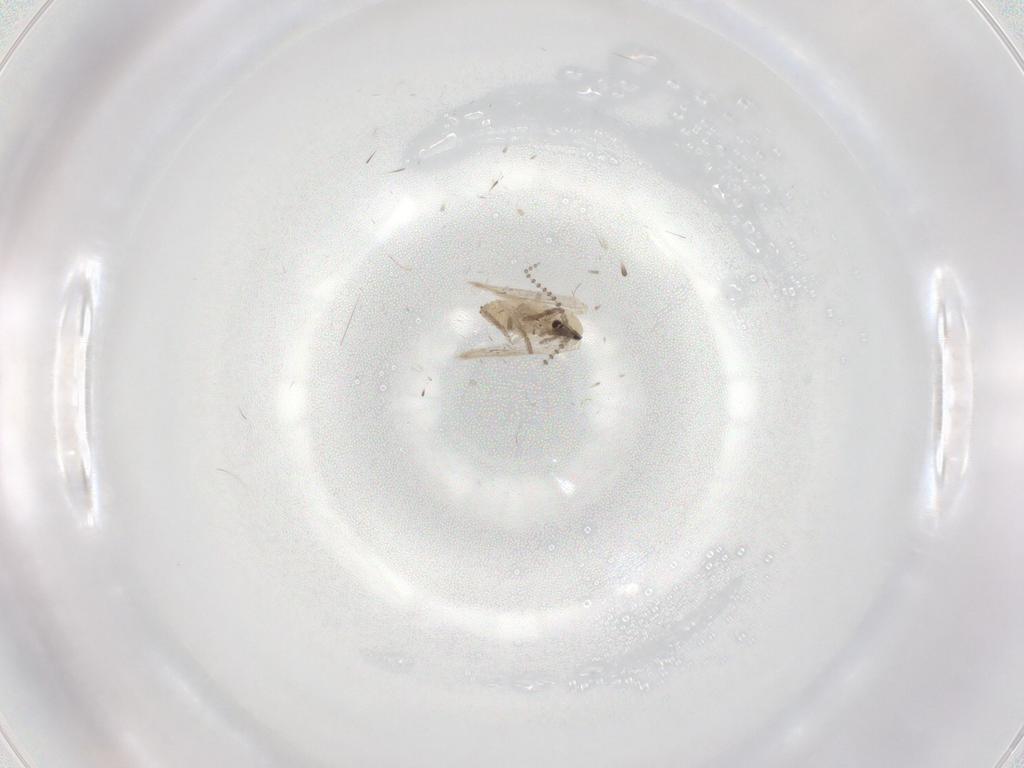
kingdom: Animalia
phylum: Arthropoda
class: Insecta
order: Diptera
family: Psychodidae
